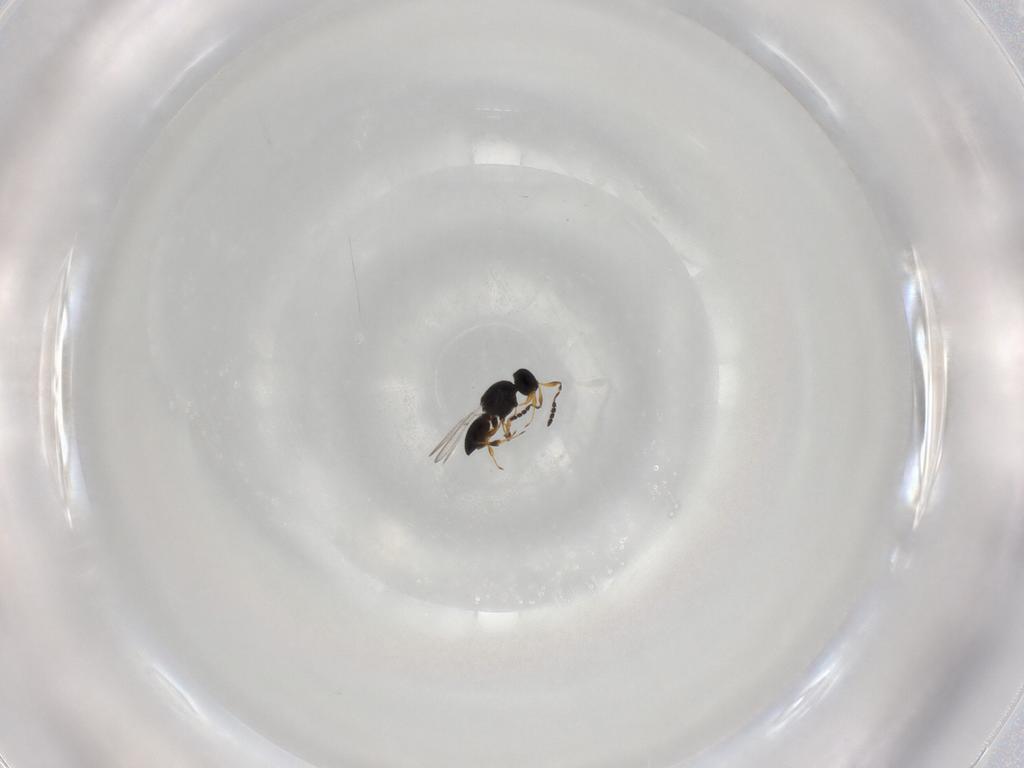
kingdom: Animalia
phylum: Arthropoda
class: Insecta
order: Hymenoptera
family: Platygastridae
